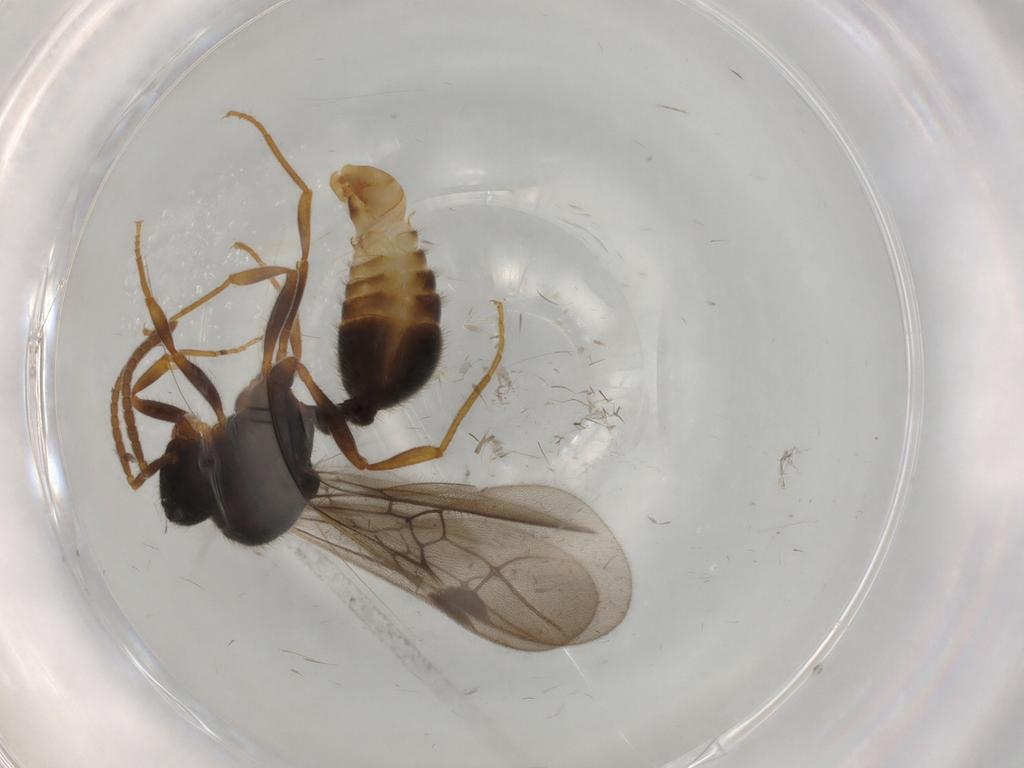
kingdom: Animalia
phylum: Arthropoda
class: Insecta
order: Hymenoptera
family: Formicidae
